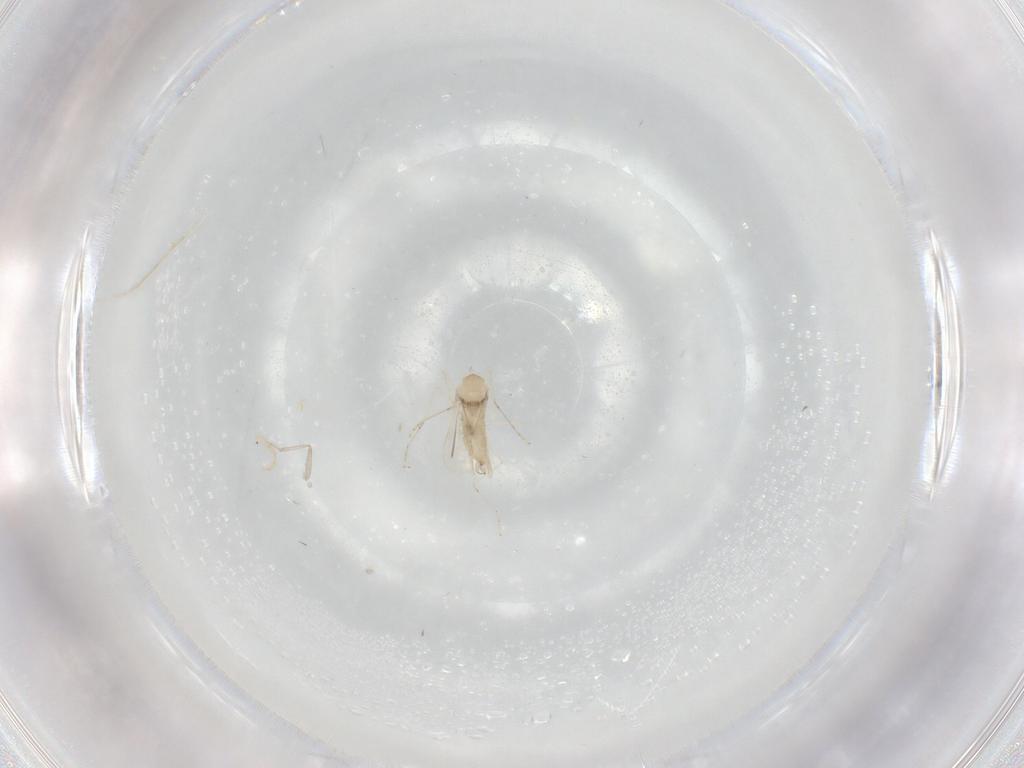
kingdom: Animalia
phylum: Arthropoda
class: Insecta
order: Diptera
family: Cecidomyiidae
